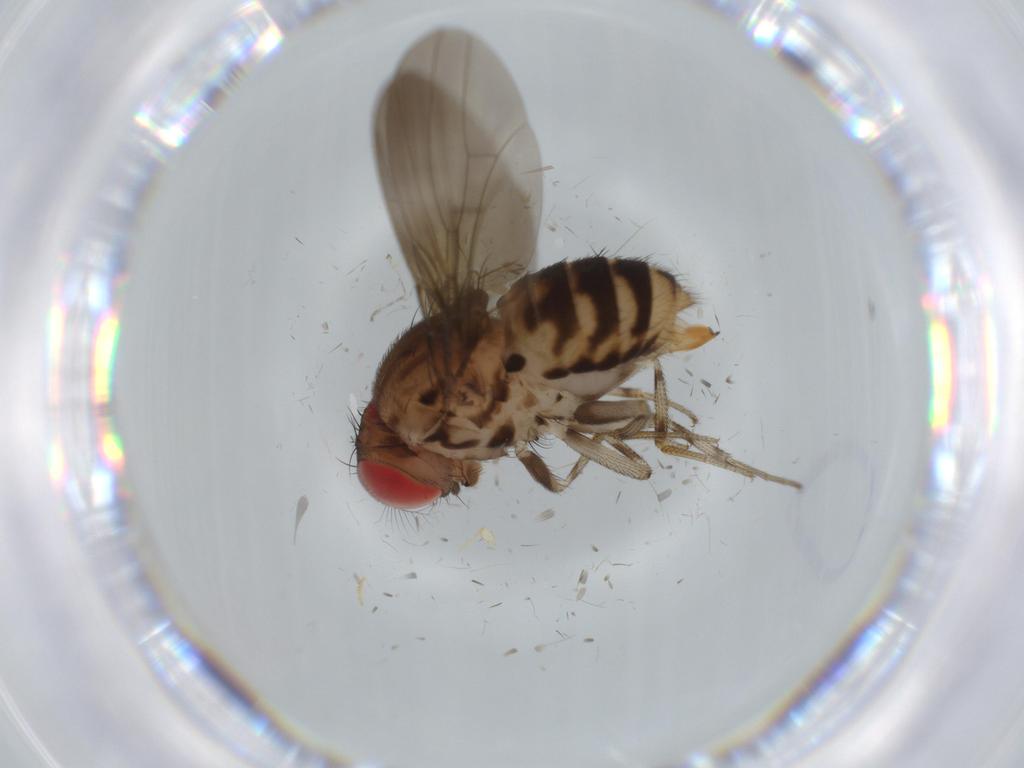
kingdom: Animalia
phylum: Arthropoda
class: Insecta
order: Diptera
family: Drosophilidae
